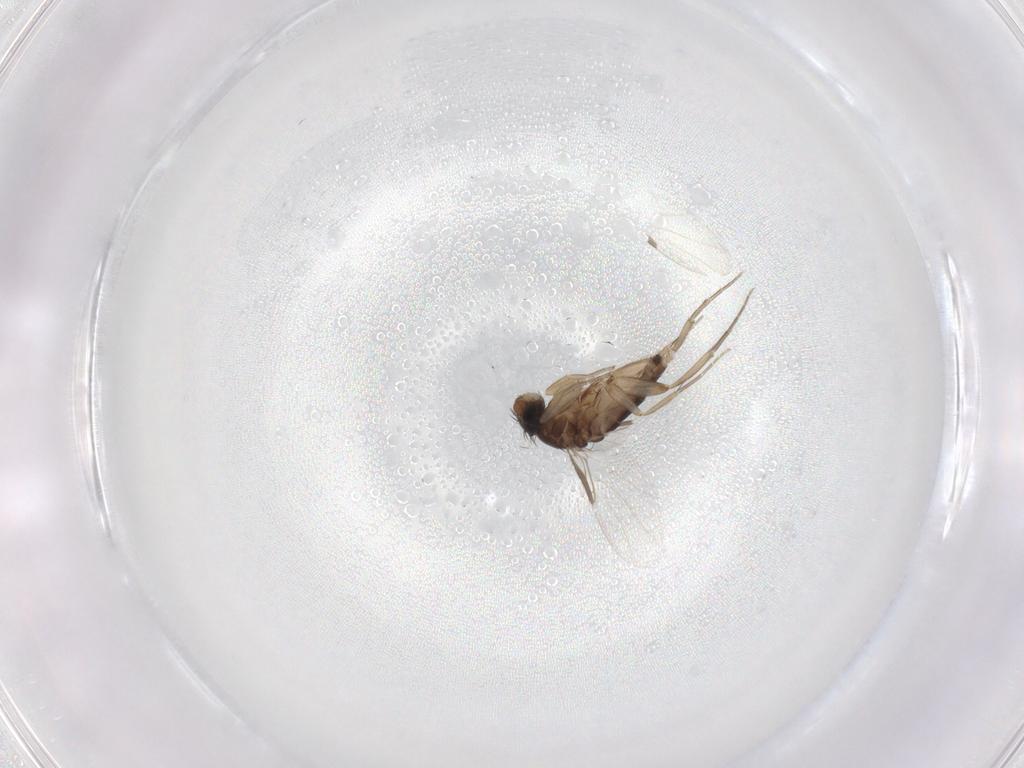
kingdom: Animalia
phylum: Arthropoda
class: Insecta
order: Diptera
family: Phoridae
